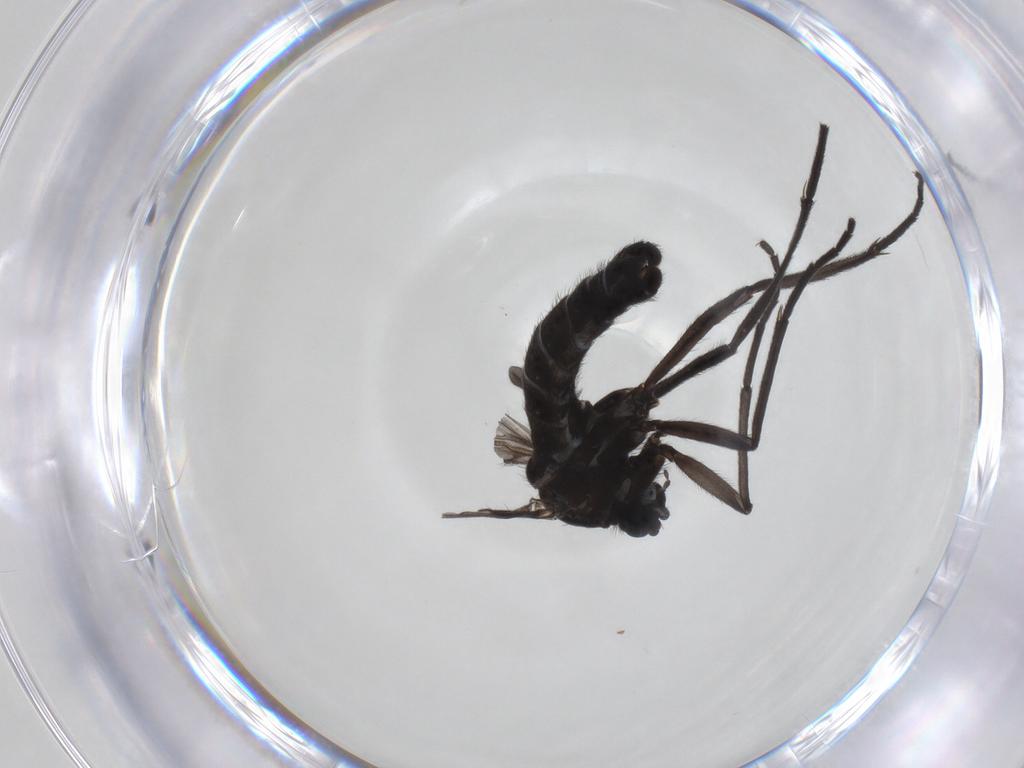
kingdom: Animalia
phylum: Arthropoda
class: Insecta
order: Diptera
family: Sciaridae
